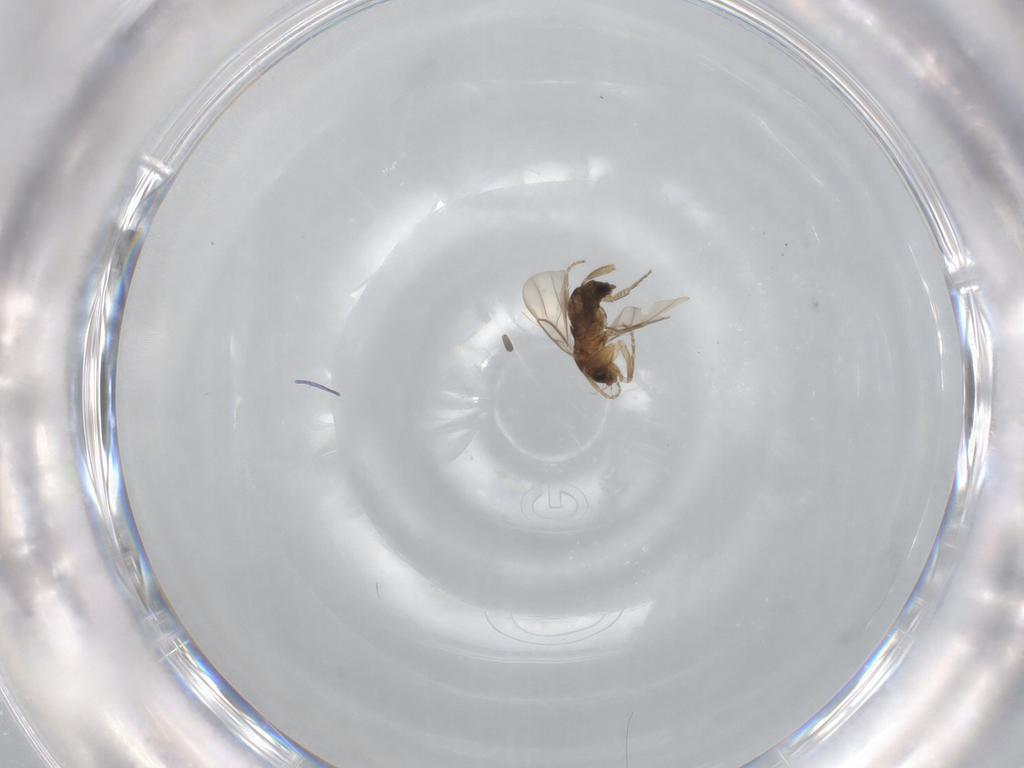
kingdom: Animalia
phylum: Arthropoda
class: Insecta
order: Diptera
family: Phoridae
